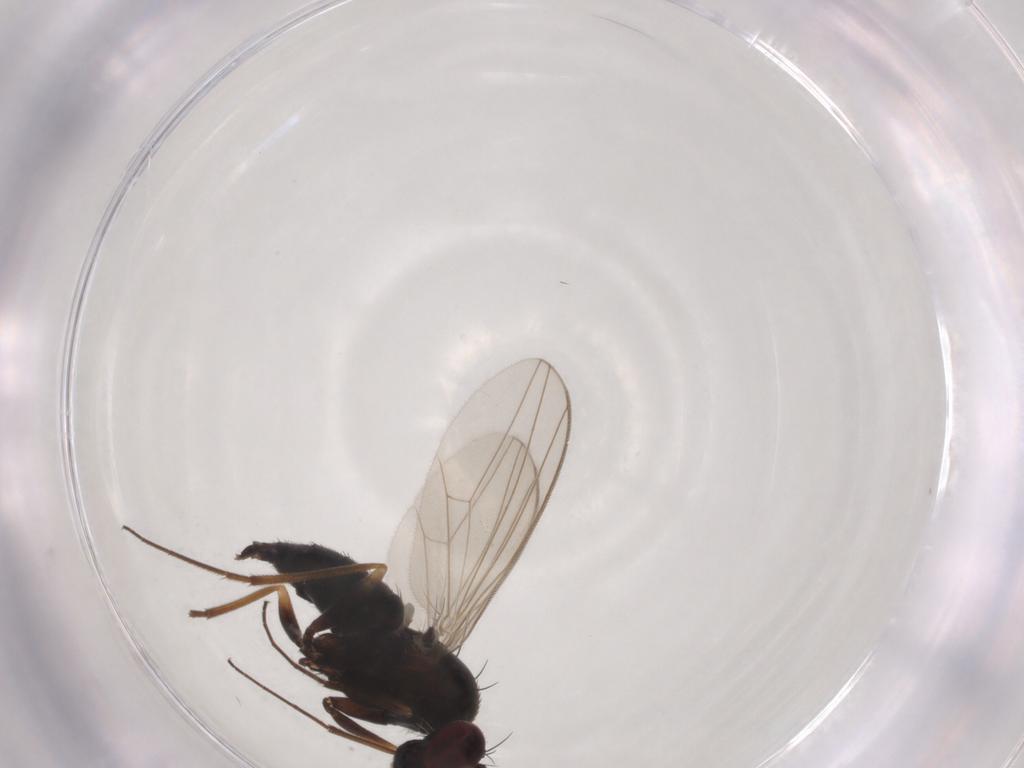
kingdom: Animalia
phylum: Arthropoda
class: Insecta
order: Diptera
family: Dolichopodidae
